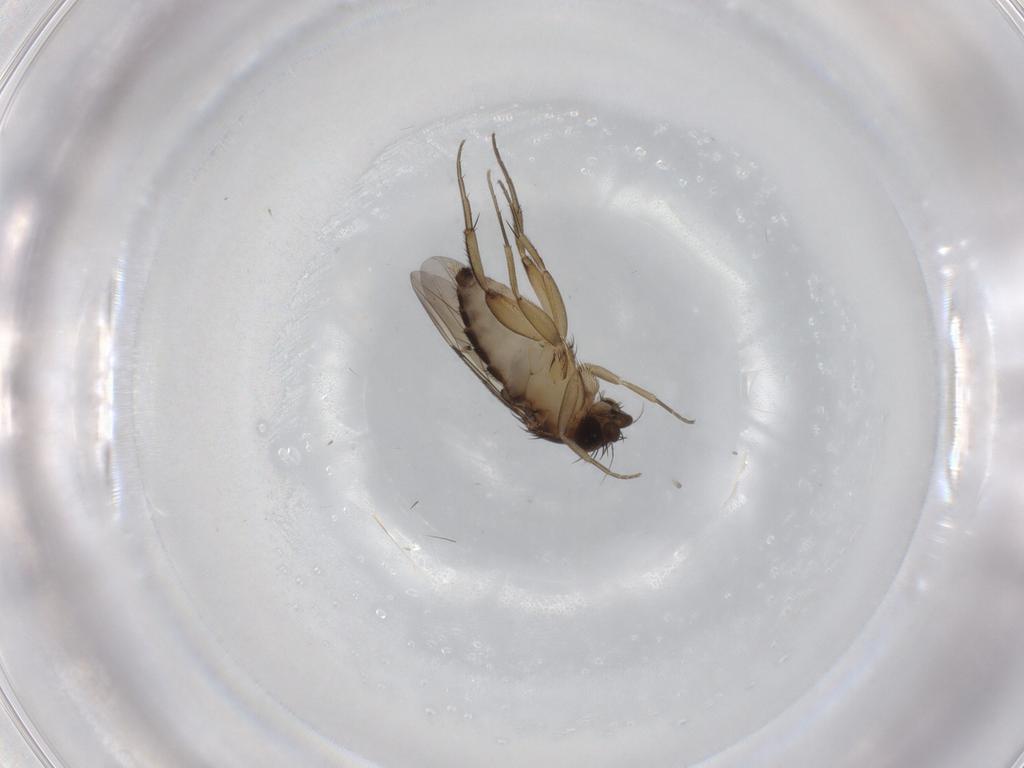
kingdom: Animalia
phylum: Arthropoda
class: Insecta
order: Diptera
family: Phoridae
